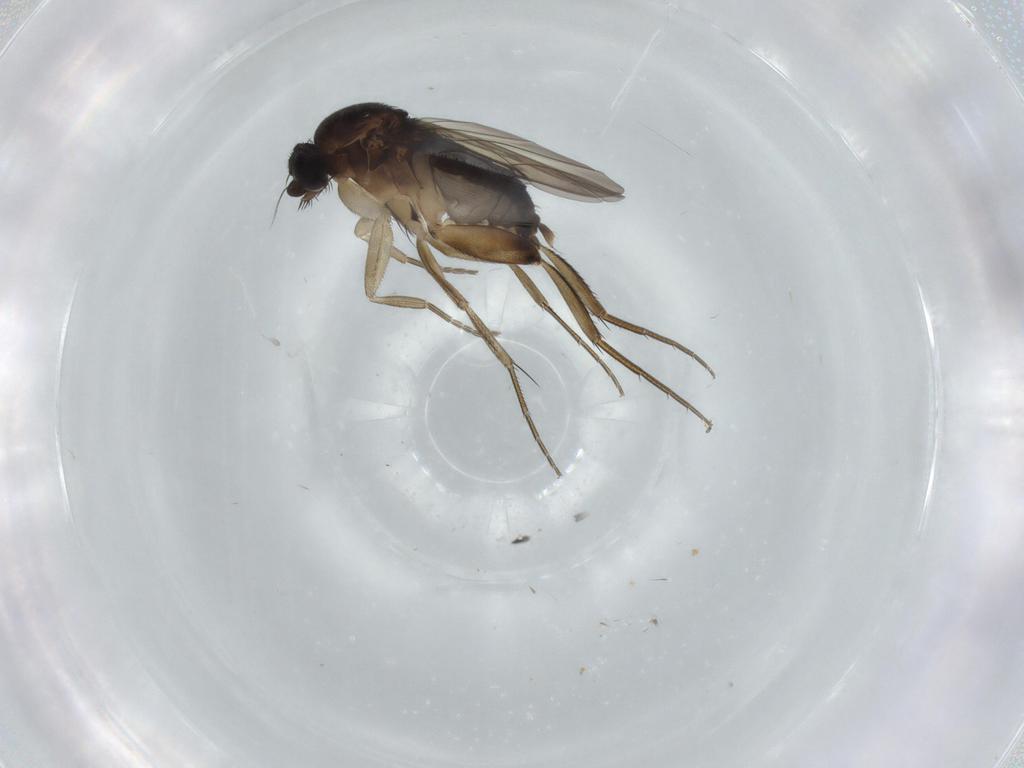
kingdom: Animalia
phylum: Arthropoda
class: Insecta
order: Diptera
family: Phoridae
